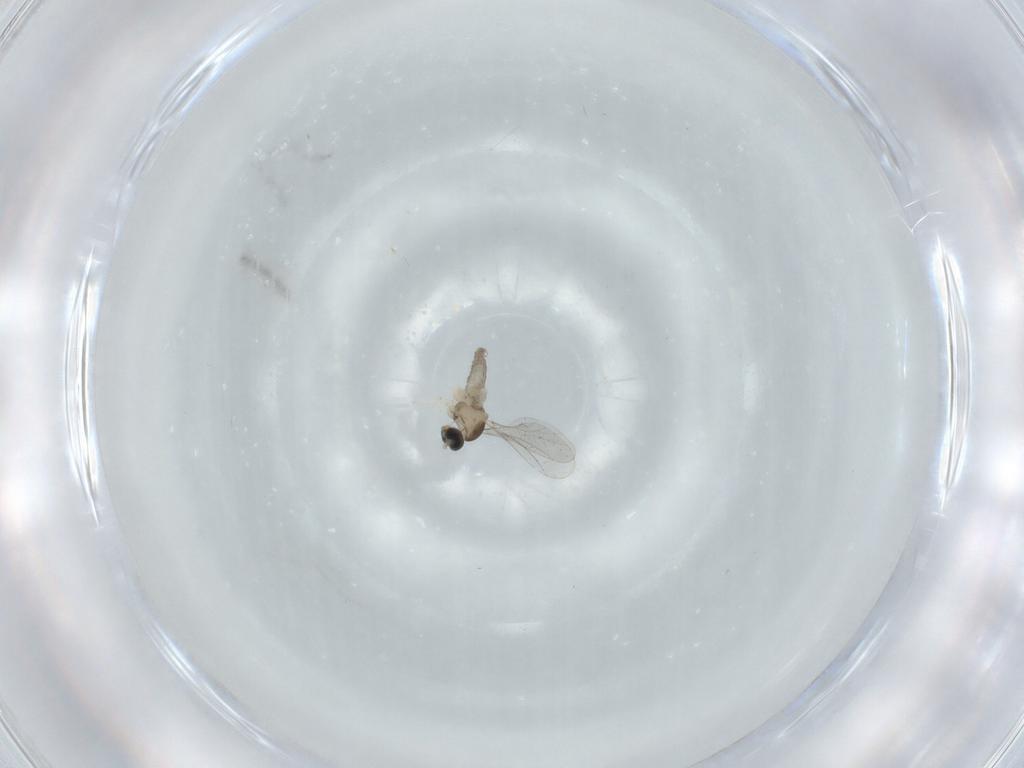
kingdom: Animalia
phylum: Arthropoda
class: Insecta
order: Diptera
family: Cecidomyiidae
